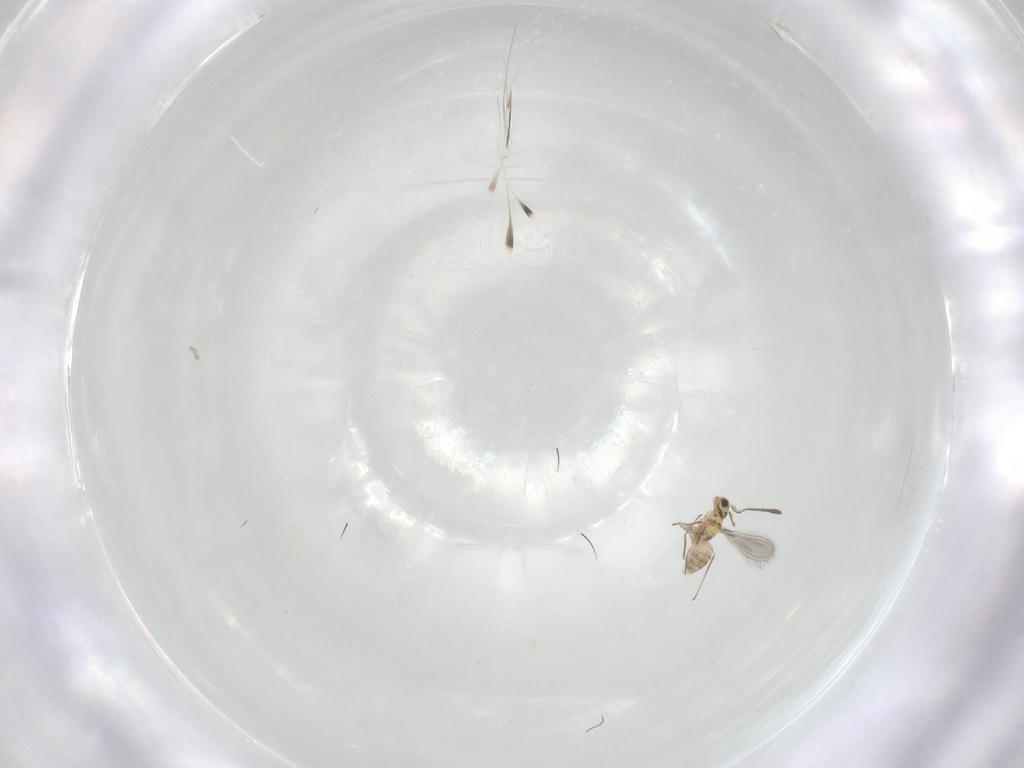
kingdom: Animalia
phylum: Arthropoda
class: Insecta
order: Hymenoptera
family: Mymaridae
